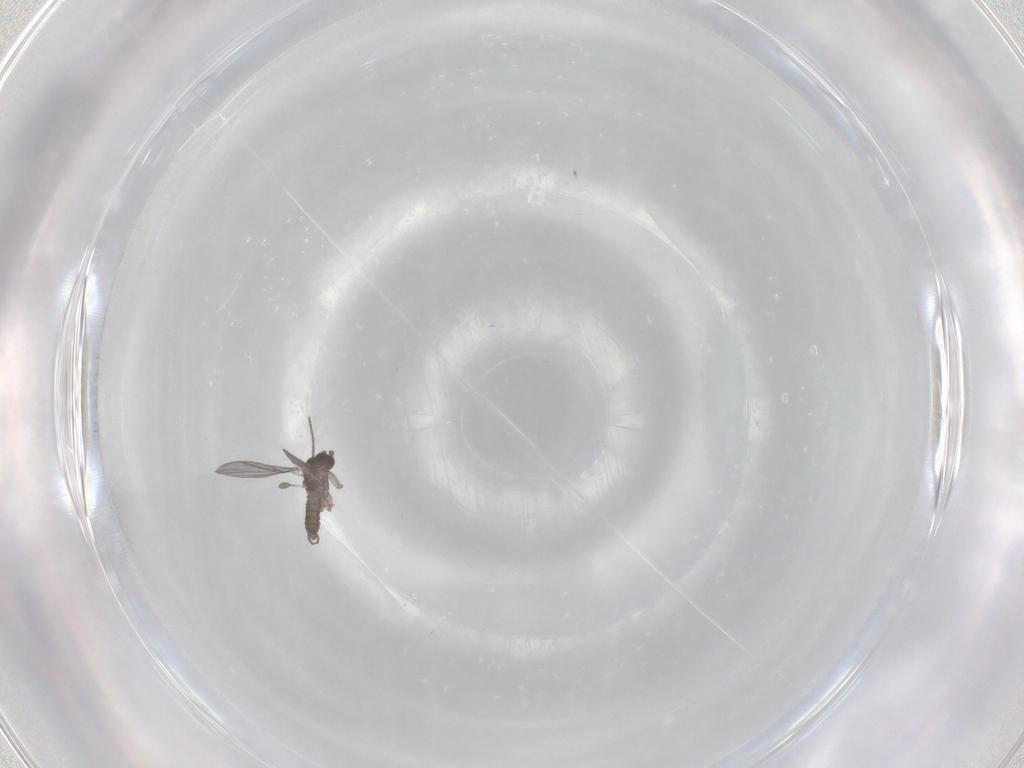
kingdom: Animalia
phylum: Arthropoda
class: Insecta
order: Diptera
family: Sciaridae
